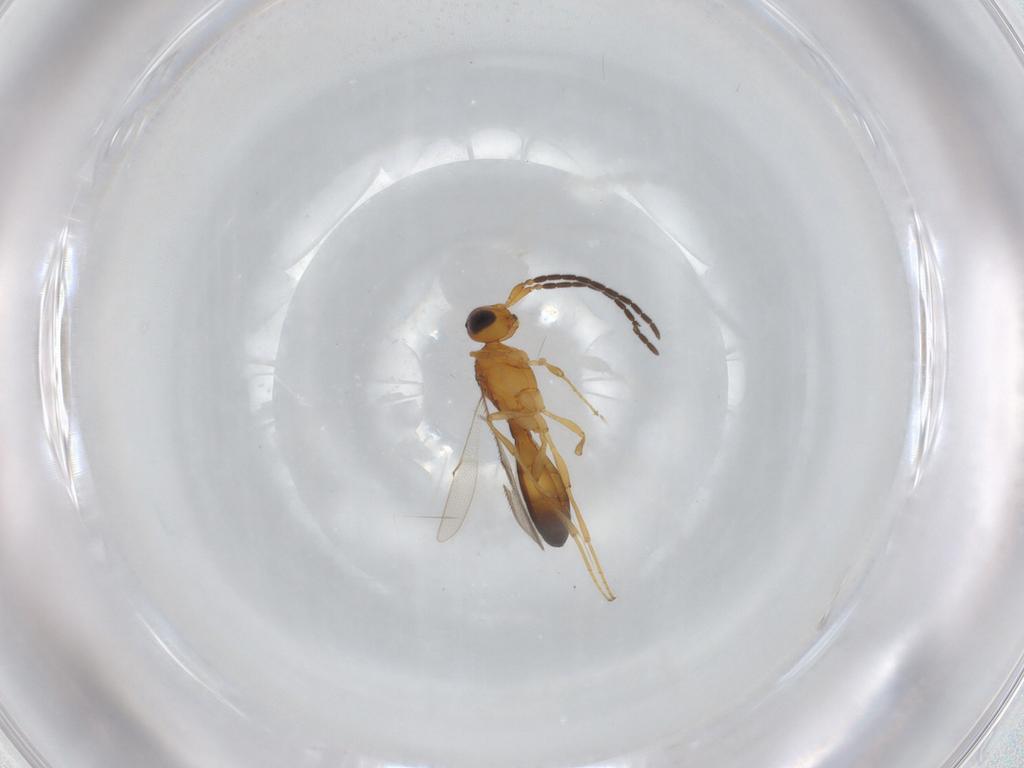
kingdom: Animalia
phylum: Arthropoda
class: Insecta
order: Hymenoptera
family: Scelionidae
